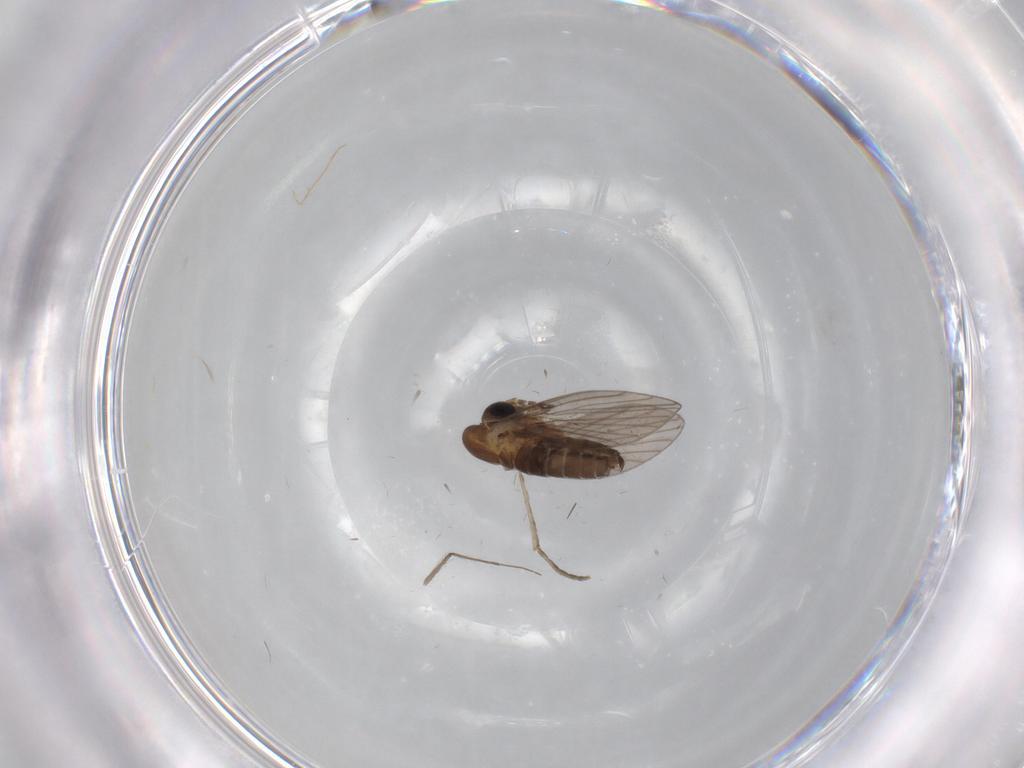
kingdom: Animalia
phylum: Arthropoda
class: Insecta
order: Diptera
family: Psychodidae
